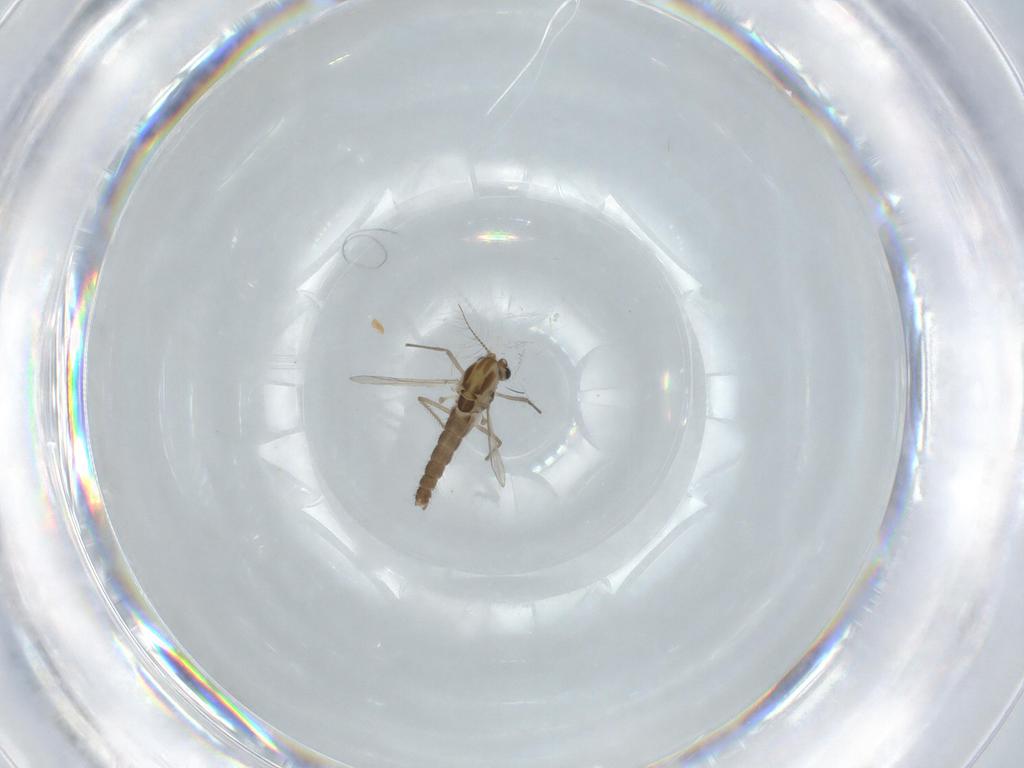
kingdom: Animalia
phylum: Arthropoda
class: Insecta
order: Diptera
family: Chironomidae
